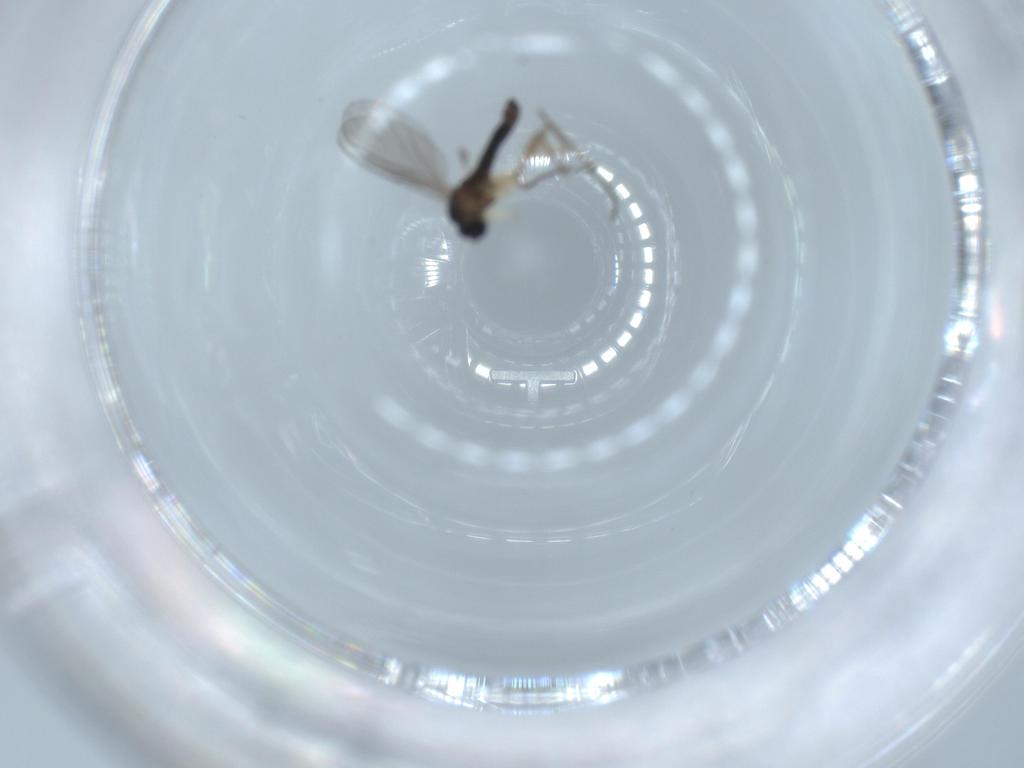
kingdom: Animalia
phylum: Arthropoda
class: Insecta
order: Diptera
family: Sciaridae
